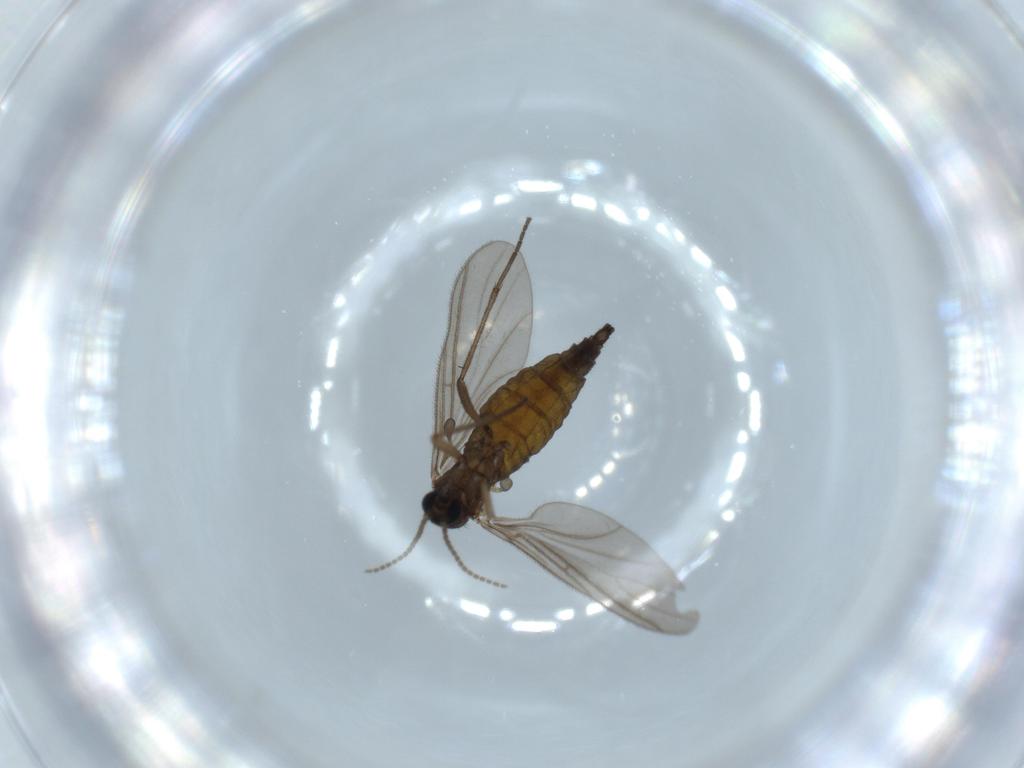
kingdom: Animalia
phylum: Arthropoda
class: Insecta
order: Diptera
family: Sciaridae
